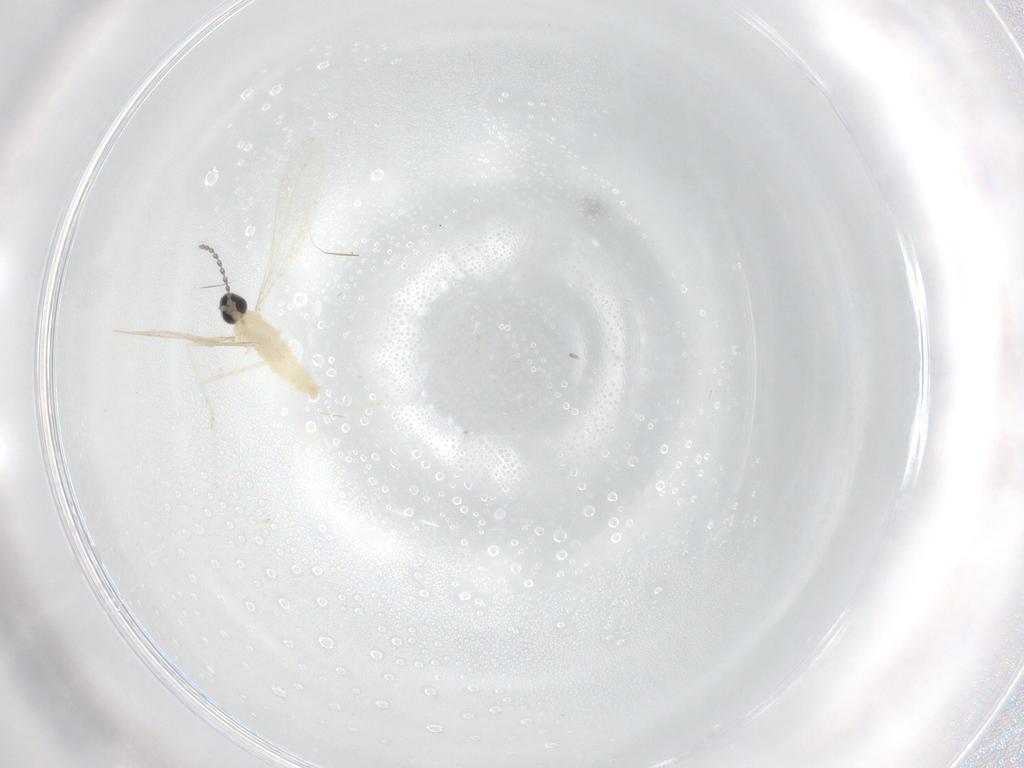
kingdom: Animalia
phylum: Arthropoda
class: Insecta
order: Diptera
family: Cecidomyiidae
